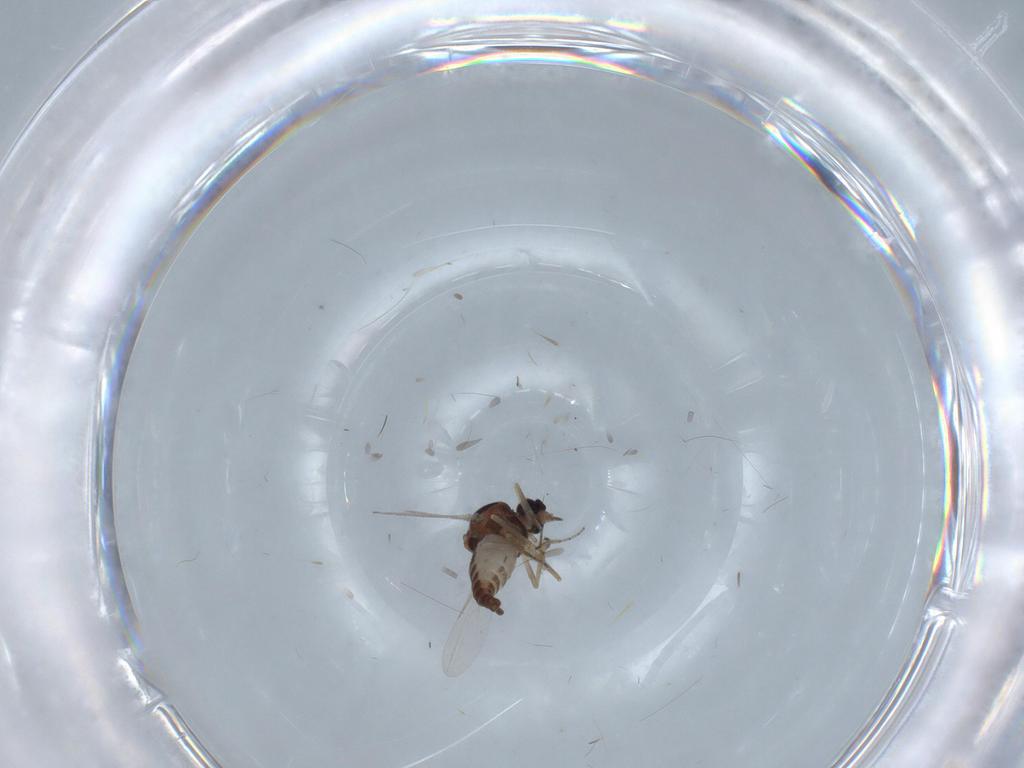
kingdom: Animalia
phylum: Arthropoda
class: Insecta
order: Diptera
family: Ceratopogonidae
